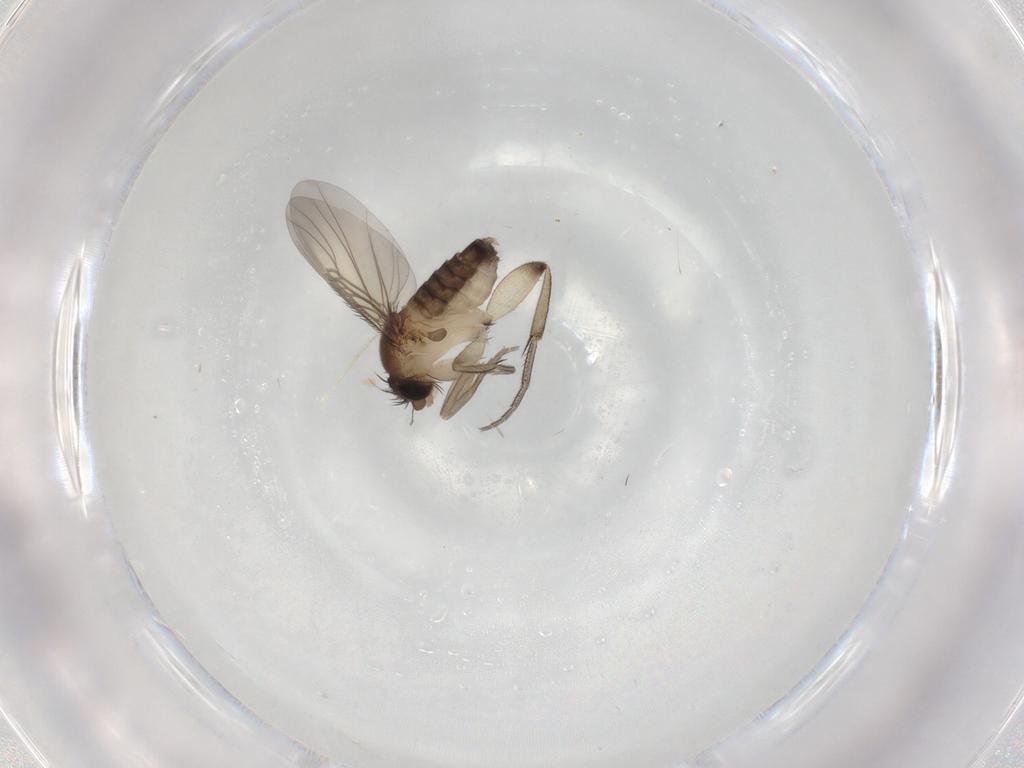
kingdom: Animalia
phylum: Arthropoda
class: Insecta
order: Diptera
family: Phoridae
